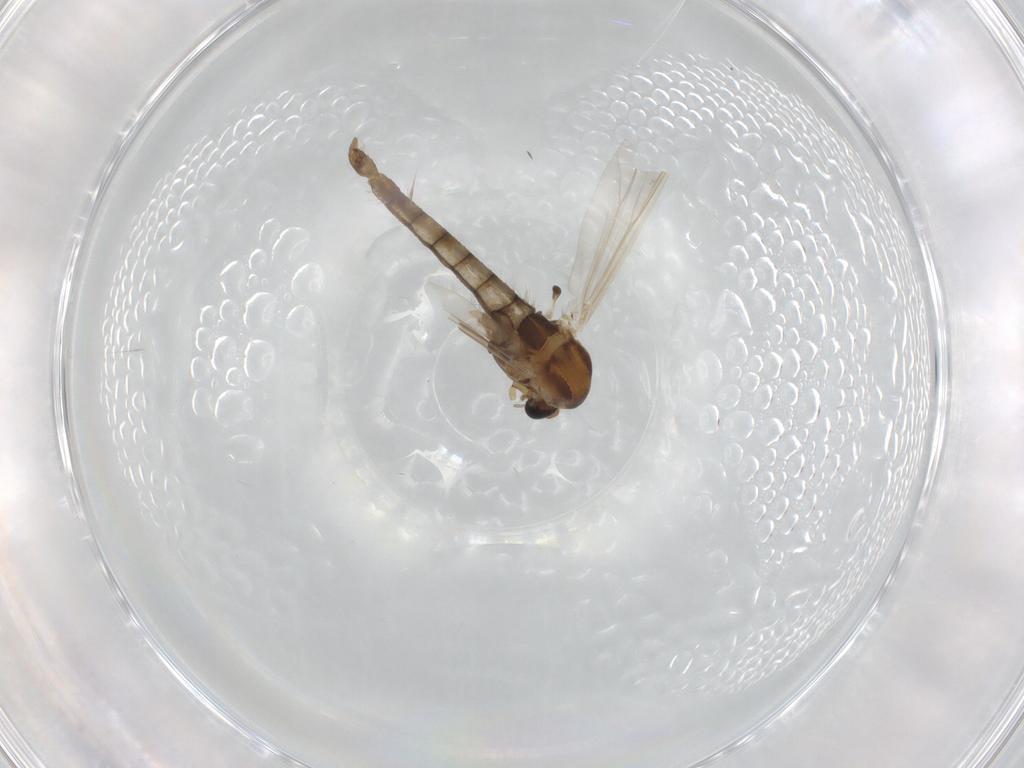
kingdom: Animalia
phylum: Arthropoda
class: Insecta
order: Diptera
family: Chironomidae
